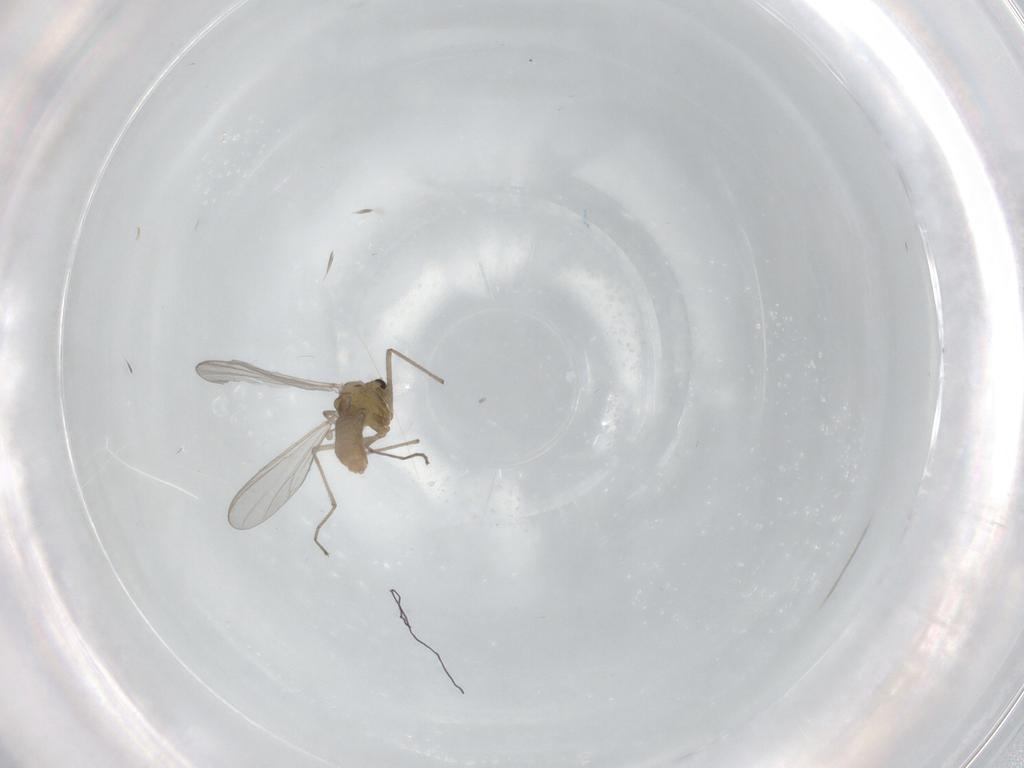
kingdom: Animalia
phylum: Arthropoda
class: Insecta
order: Diptera
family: Chironomidae
